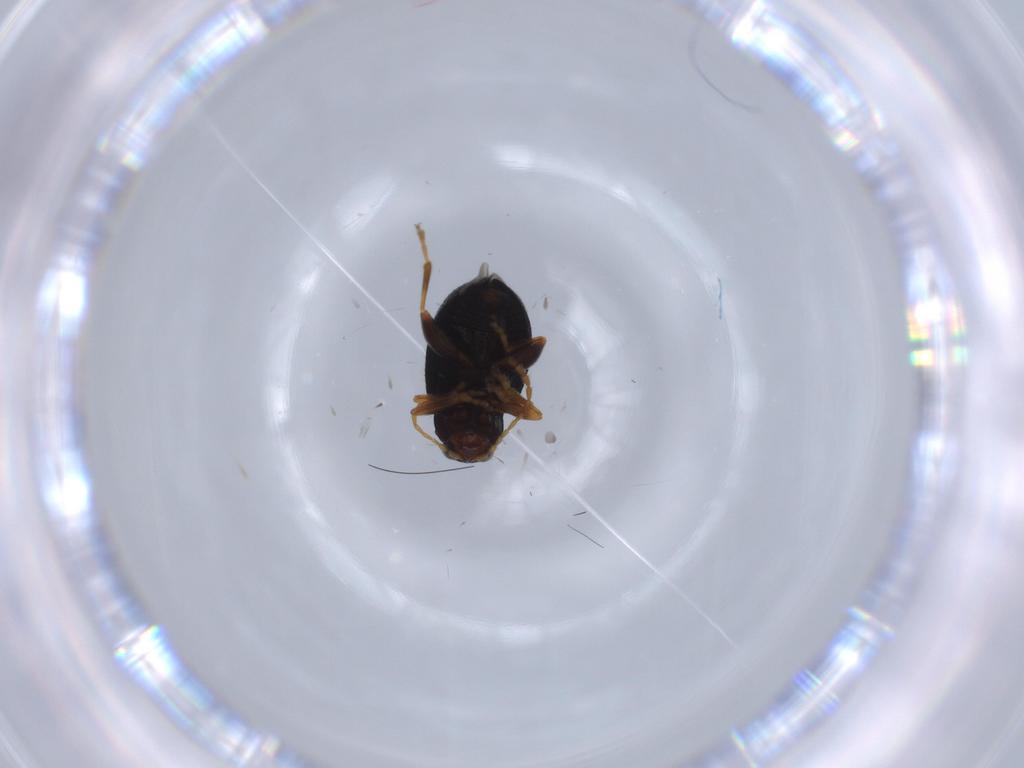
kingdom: Animalia
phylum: Arthropoda
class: Insecta
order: Coleoptera
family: Chrysomelidae
